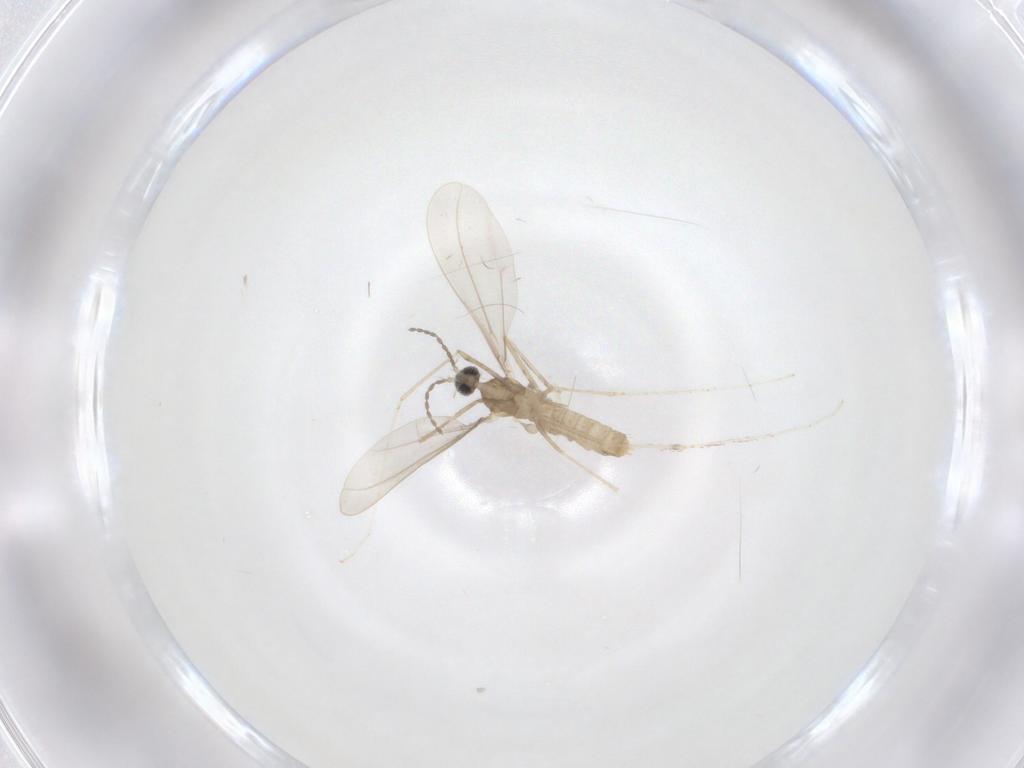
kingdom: Animalia
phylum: Arthropoda
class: Insecta
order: Diptera
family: Cecidomyiidae
